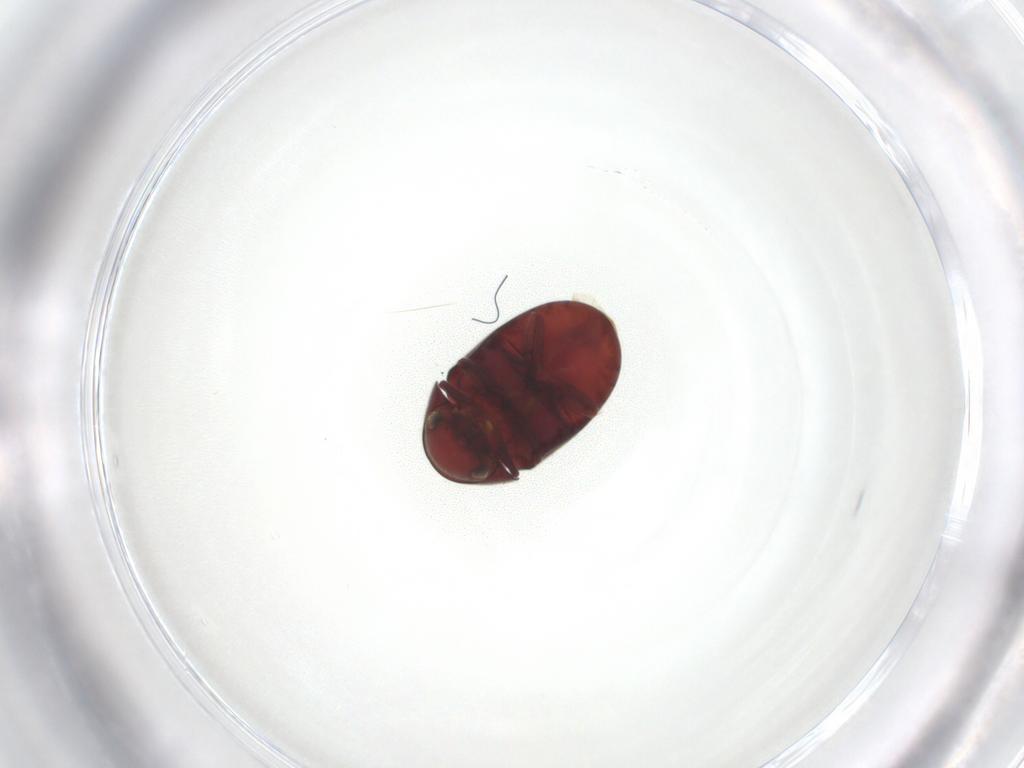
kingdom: Animalia
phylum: Arthropoda
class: Insecta
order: Coleoptera
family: Ptinidae
